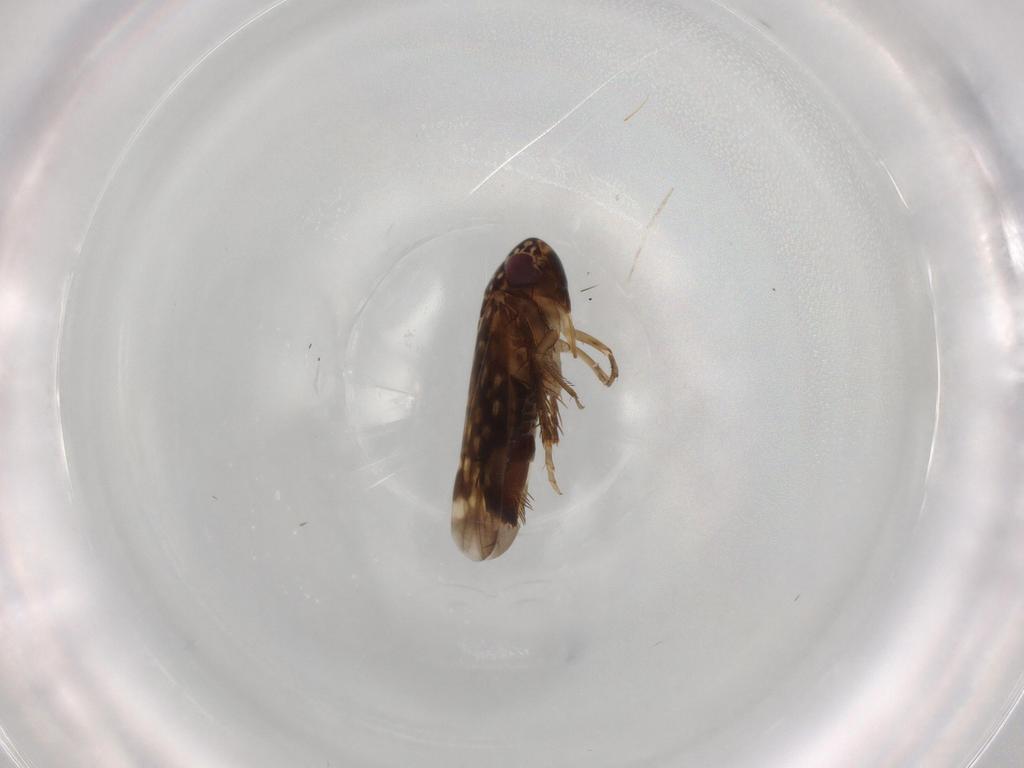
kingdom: Animalia
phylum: Arthropoda
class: Insecta
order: Hemiptera
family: Cicadellidae
